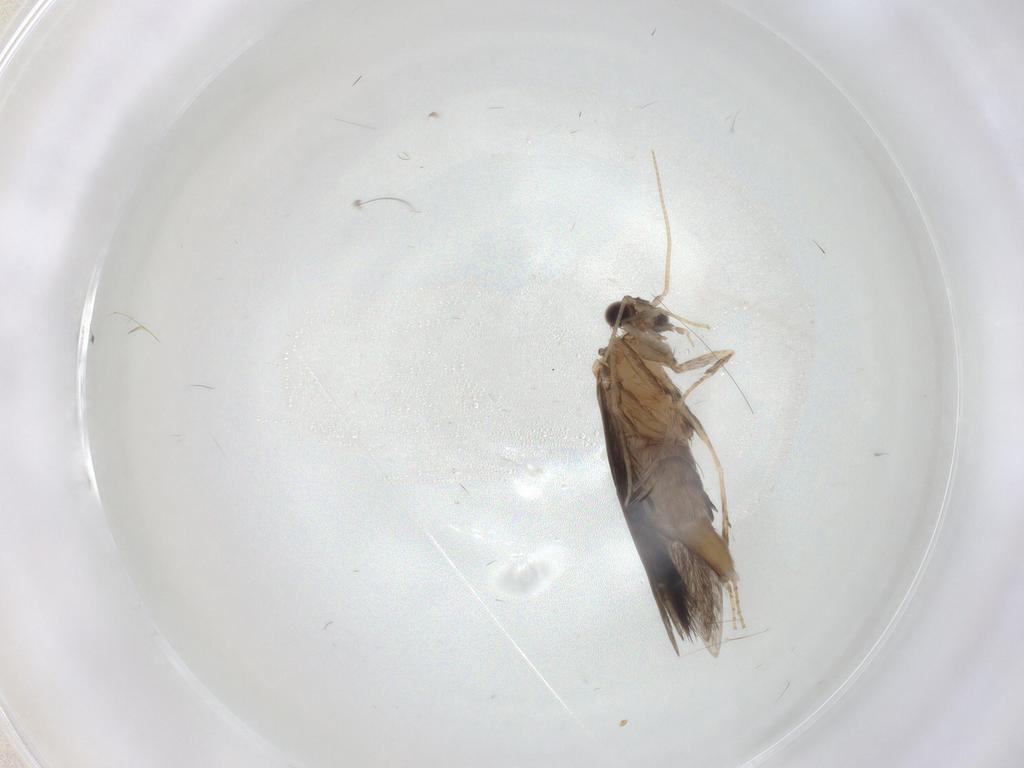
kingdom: Animalia
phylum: Arthropoda
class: Insecta
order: Trichoptera
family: Hydroptilidae
